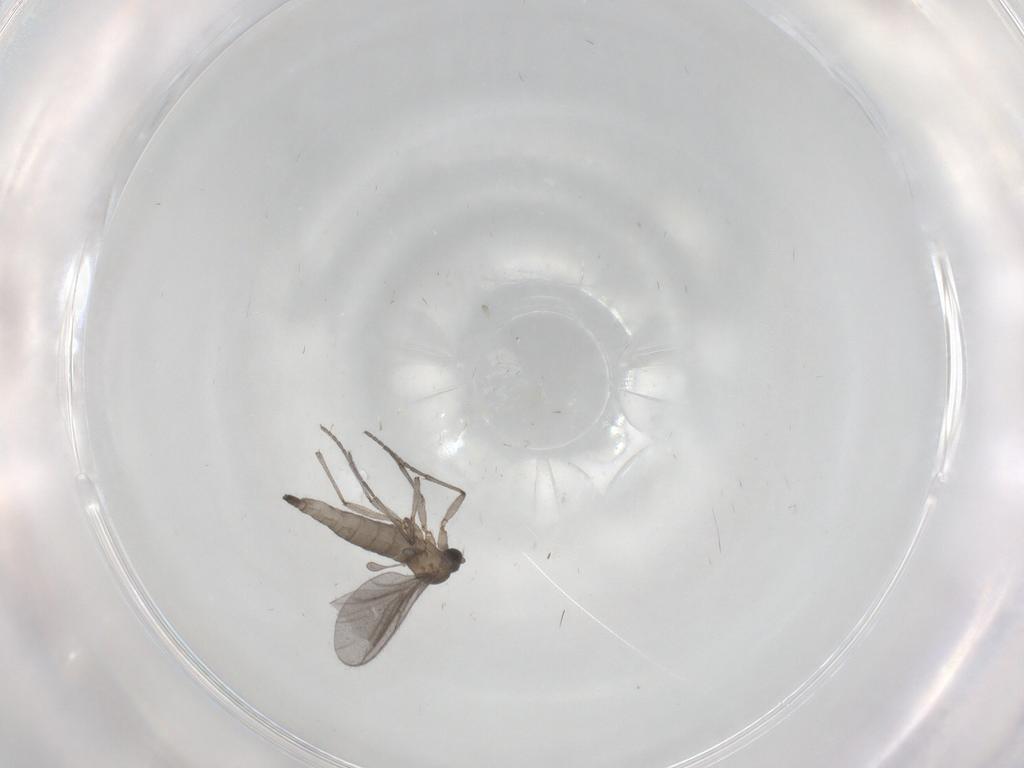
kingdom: Animalia
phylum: Arthropoda
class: Insecta
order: Diptera
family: Sciaridae
